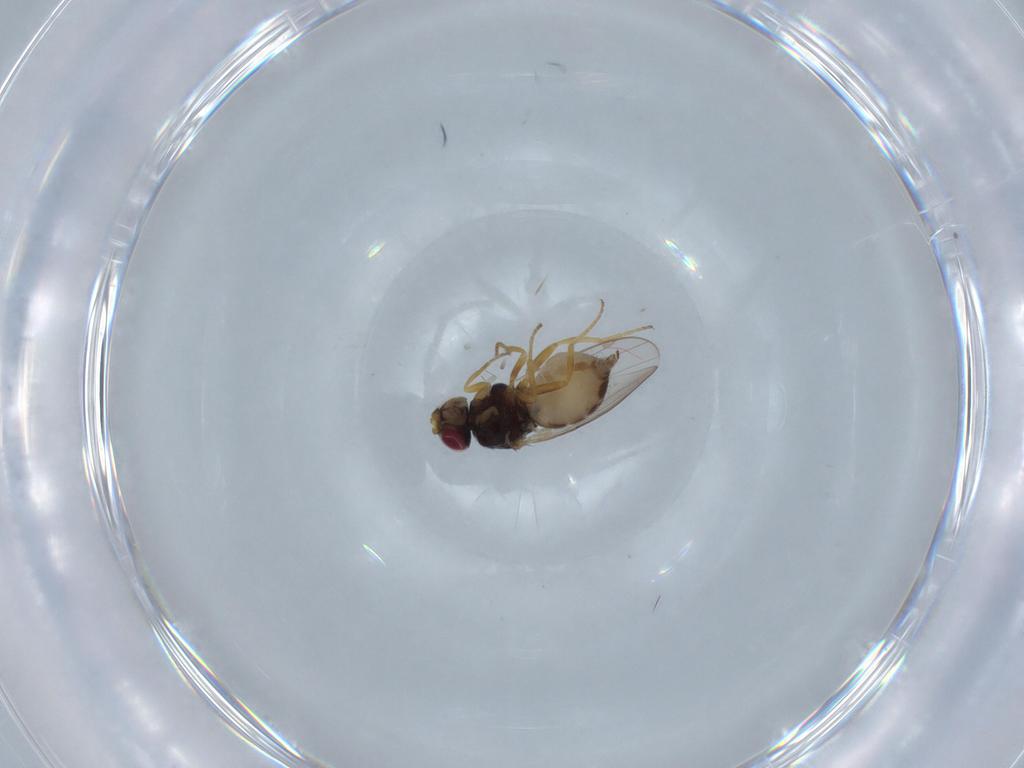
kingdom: Animalia
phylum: Arthropoda
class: Insecta
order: Diptera
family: Chloropidae
